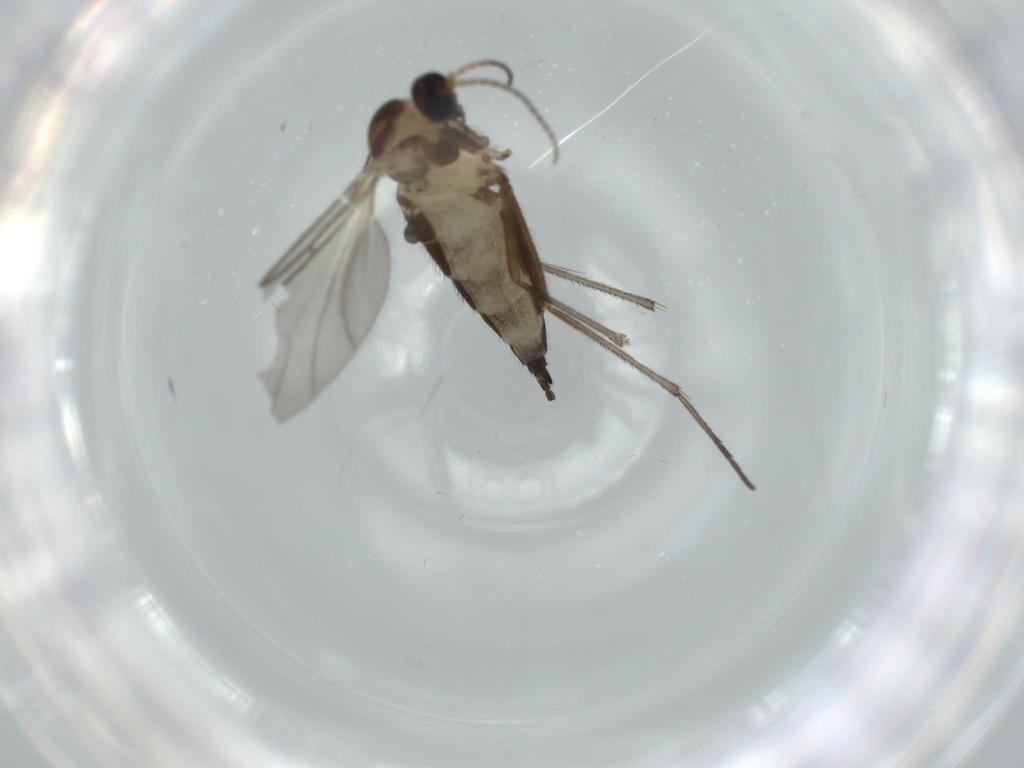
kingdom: Animalia
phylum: Arthropoda
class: Insecta
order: Diptera
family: Sciaridae
